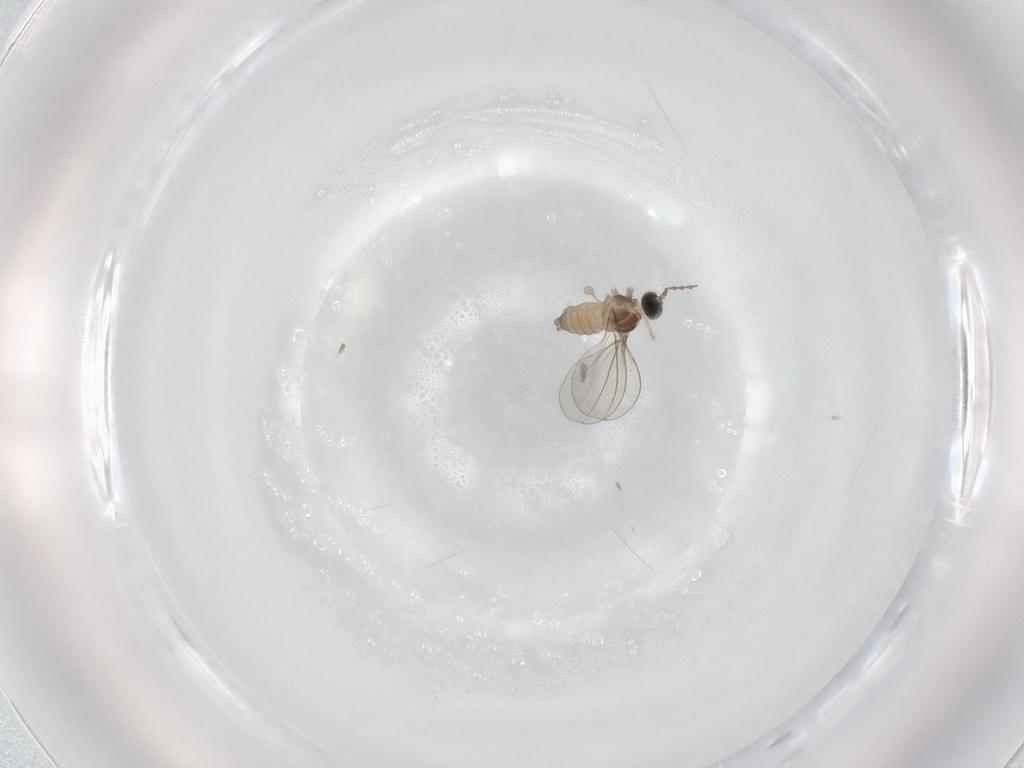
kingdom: Animalia
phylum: Arthropoda
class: Insecta
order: Diptera
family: Cecidomyiidae
